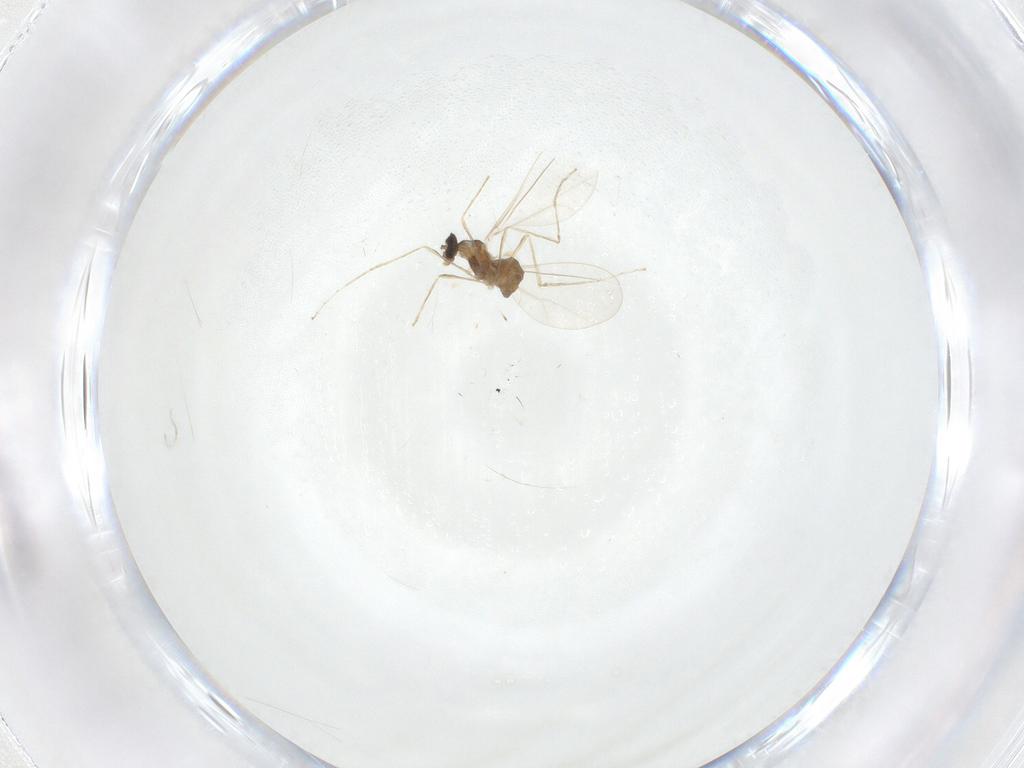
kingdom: Animalia
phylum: Arthropoda
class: Insecta
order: Diptera
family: Cecidomyiidae
